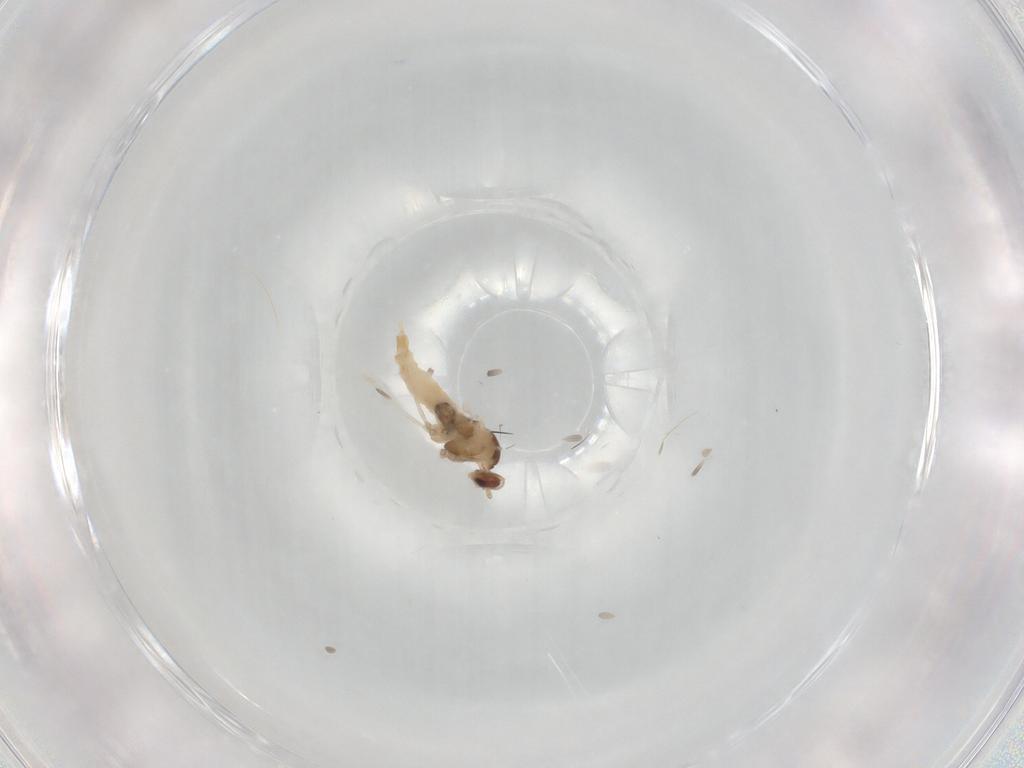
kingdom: Animalia
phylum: Arthropoda
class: Insecta
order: Diptera
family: Cecidomyiidae
